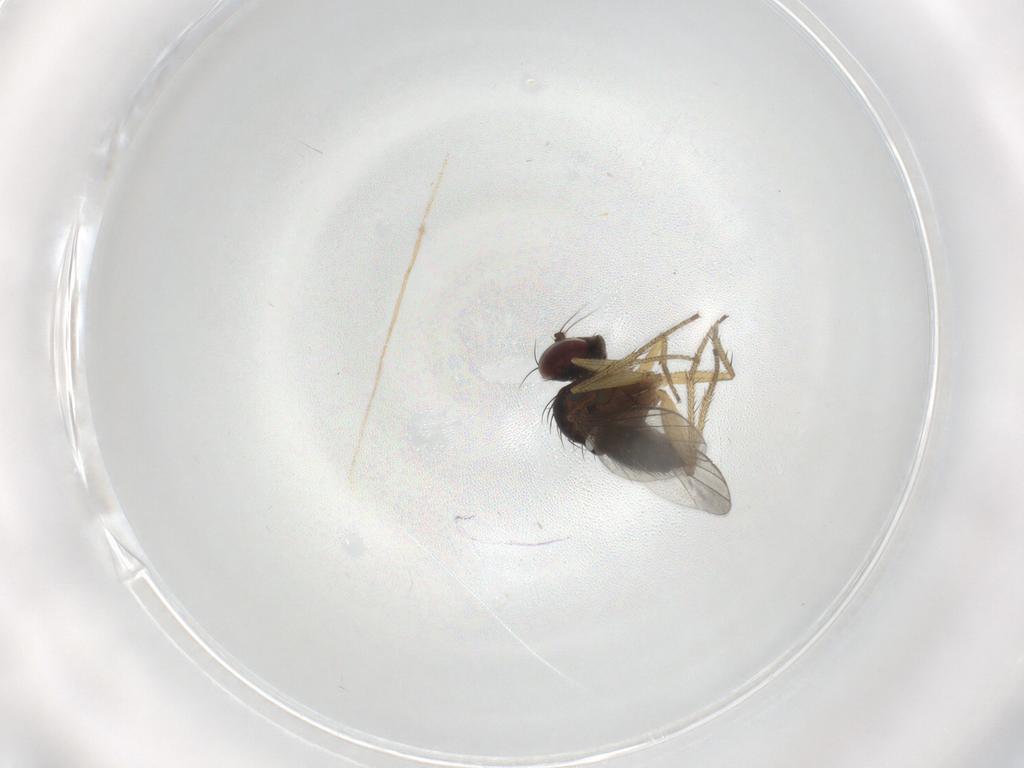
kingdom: Animalia
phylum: Arthropoda
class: Insecta
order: Diptera
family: Dolichopodidae
